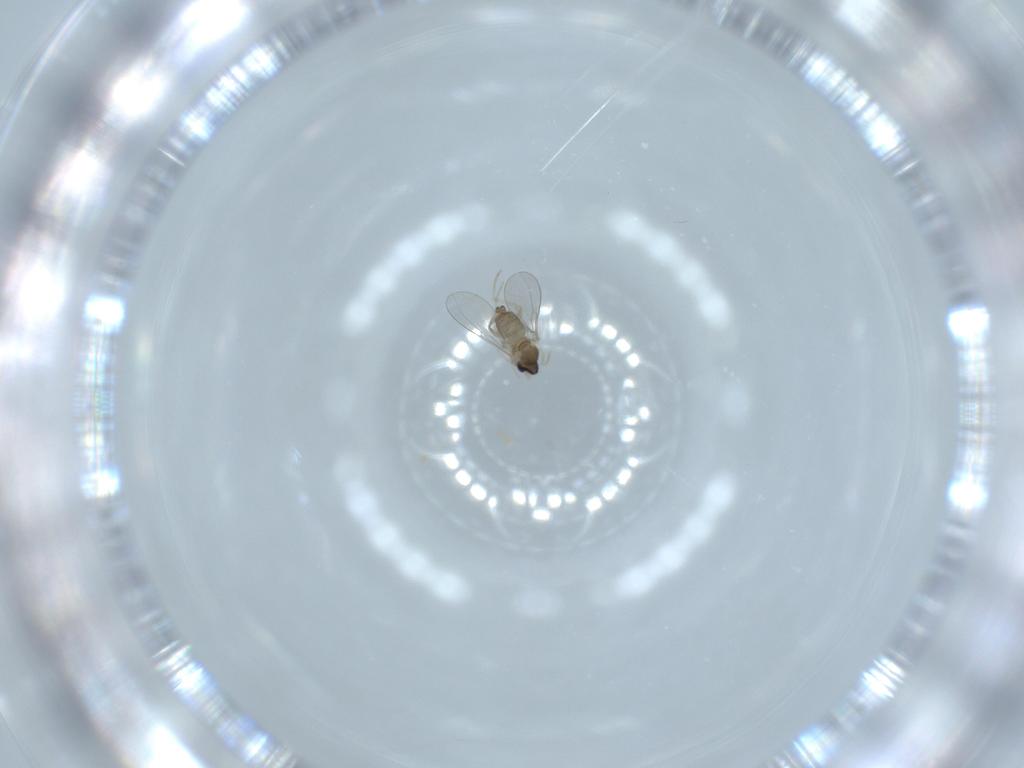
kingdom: Animalia
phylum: Arthropoda
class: Insecta
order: Diptera
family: Cecidomyiidae
